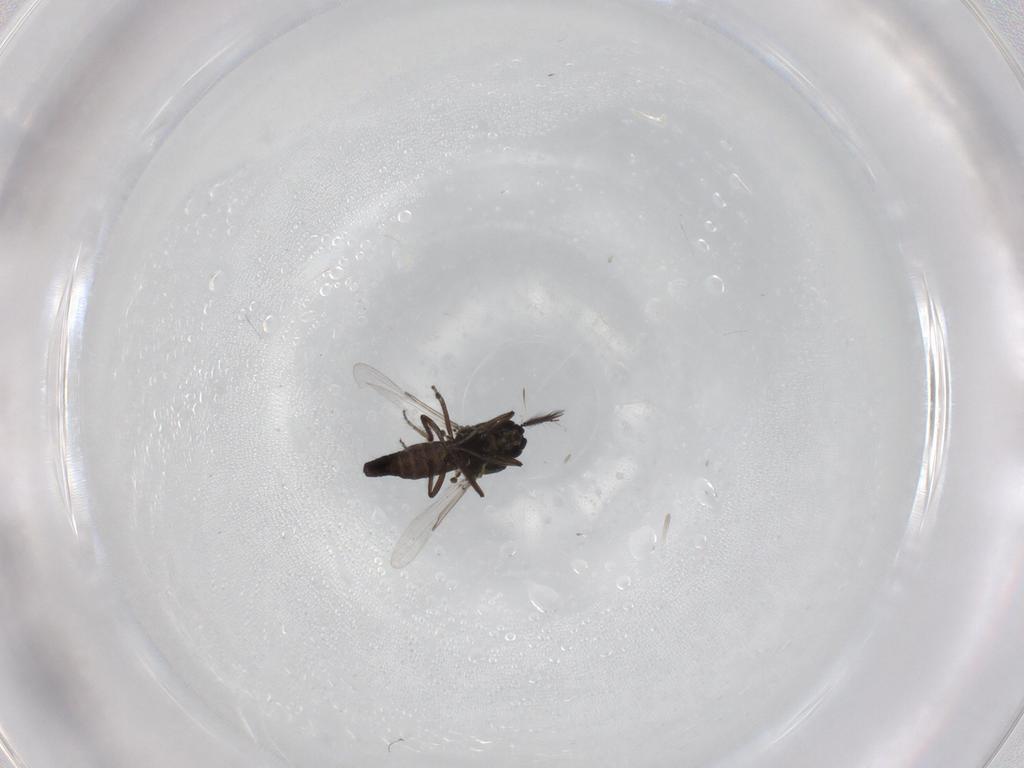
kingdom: Animalia
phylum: Arthropoda
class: Insecta
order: Diptera
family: Ceratopogonidae
